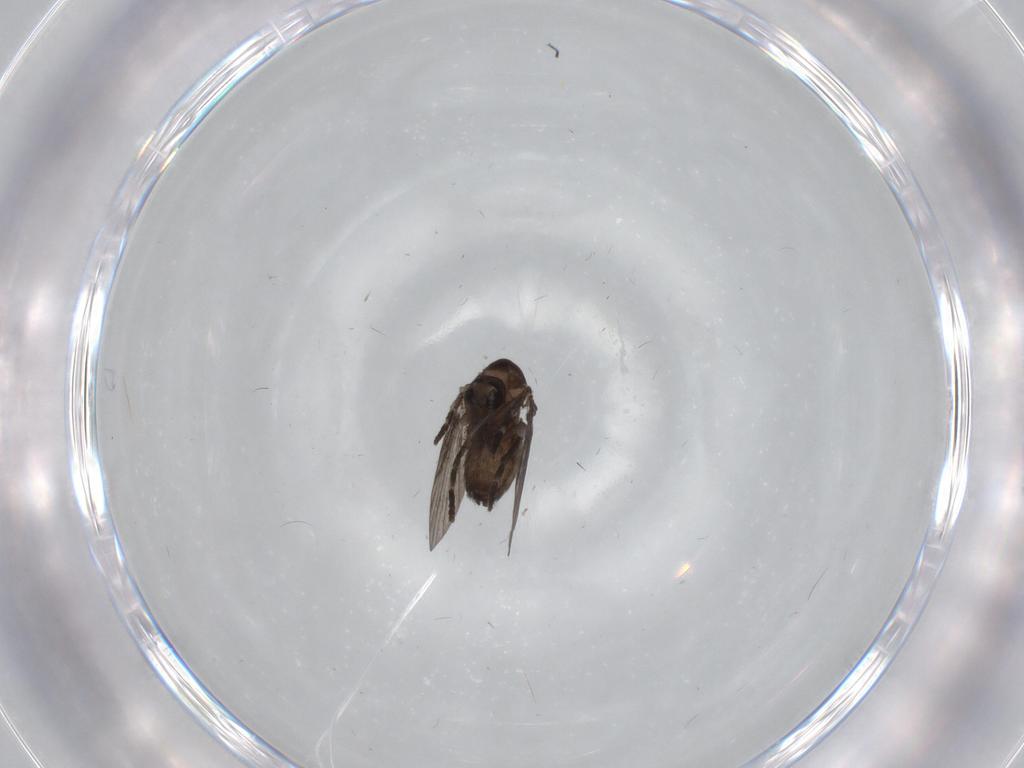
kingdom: Animalia
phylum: Arthropoda
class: Insecta
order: Diptera
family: Psychodidae
